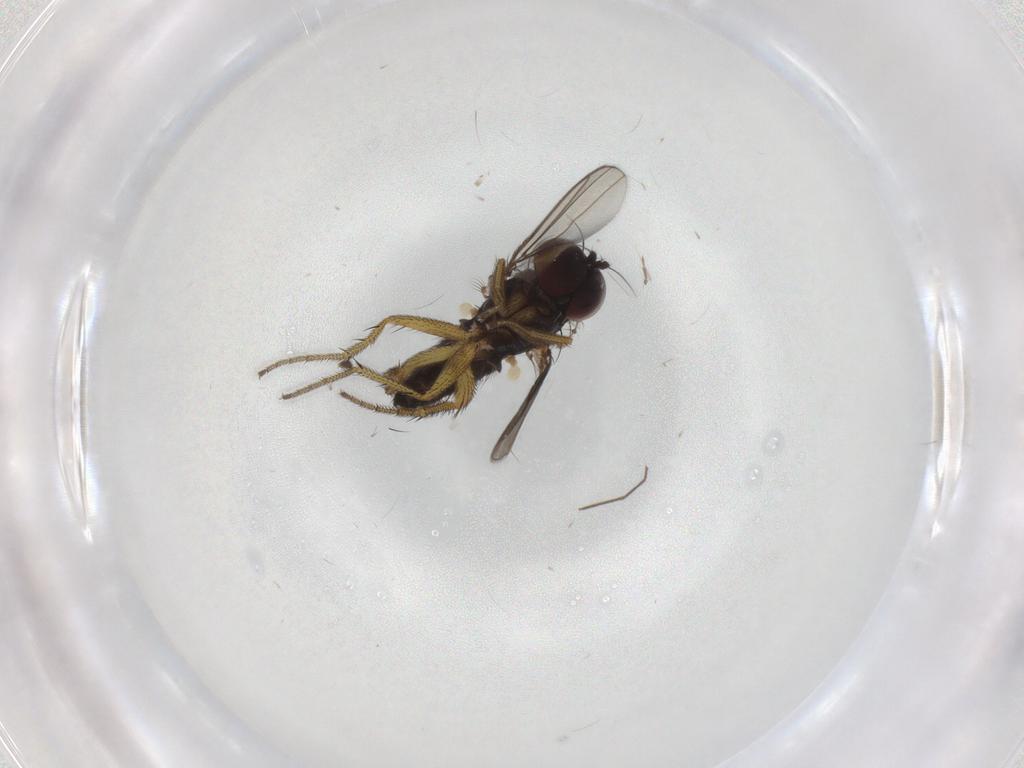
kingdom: Animalia
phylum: Arthropoda
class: Insecta
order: Diptera
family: Dolichopodidae
